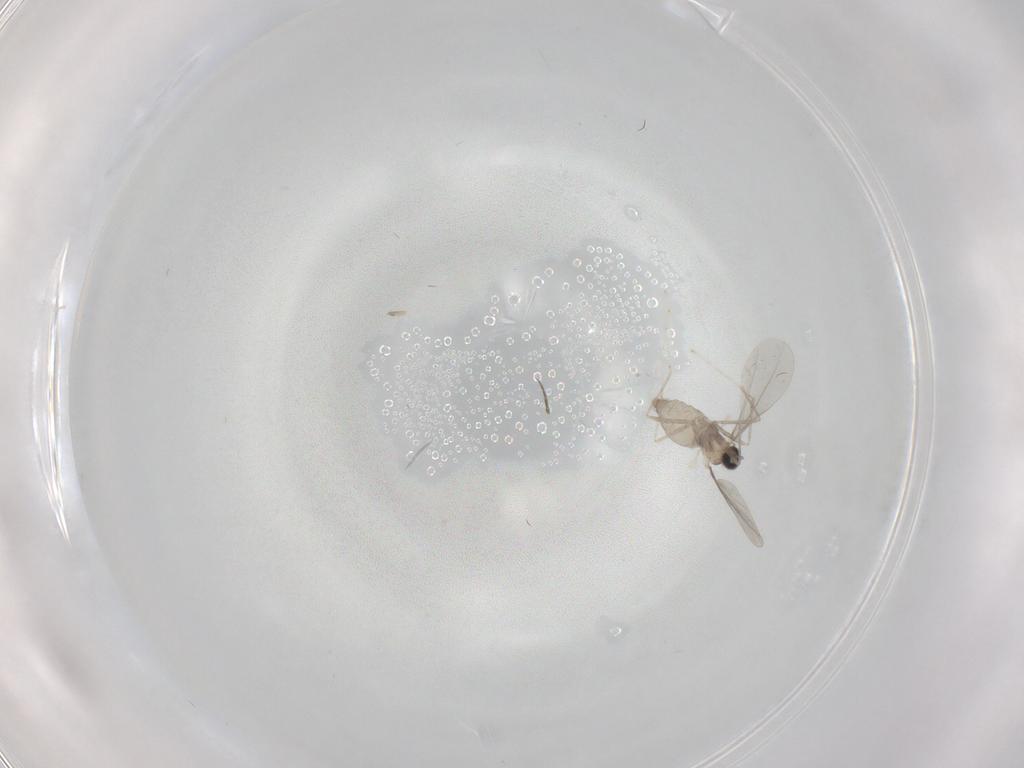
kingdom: Animalia
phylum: Arthropoda
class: Insecta
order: Diptera
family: Cecidomyiidae
